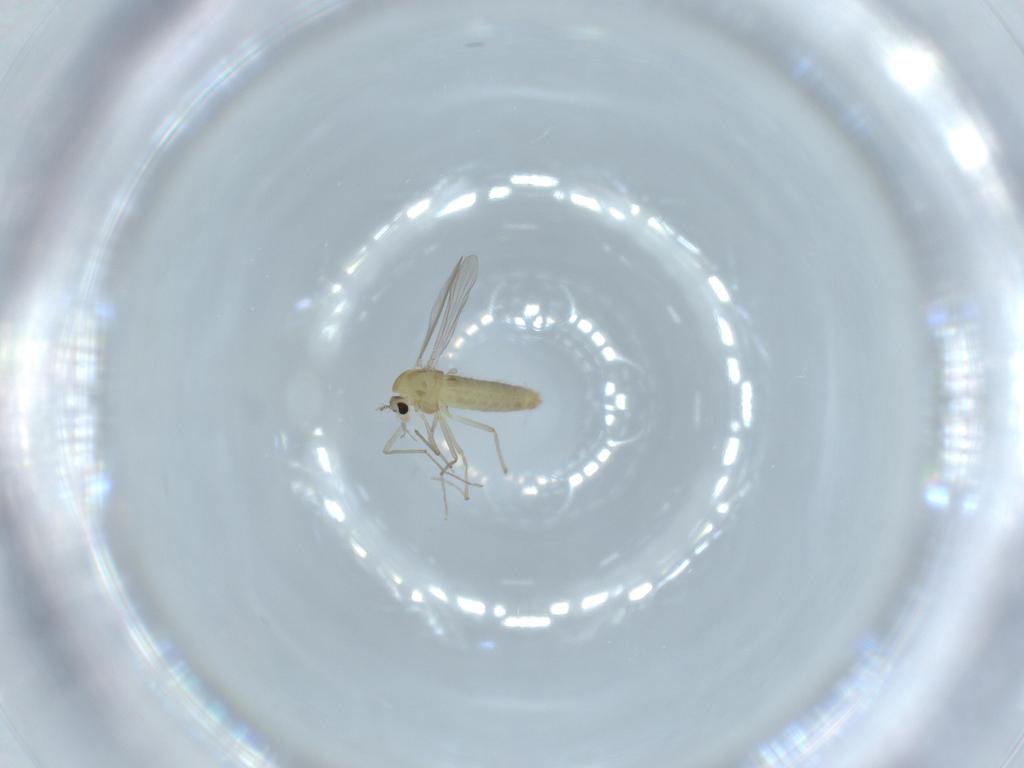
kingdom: Animalia
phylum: Arthropoda
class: Insecta
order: Diptera
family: Chironomidae
